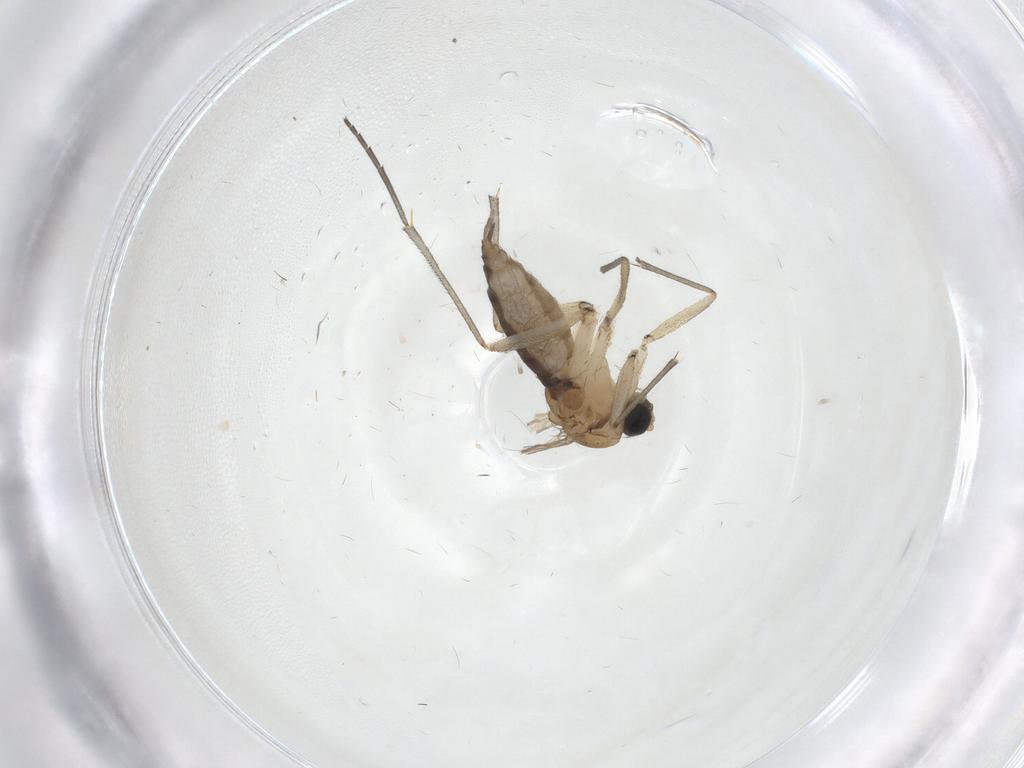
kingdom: Animalia
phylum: Arthropoda
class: Insecta
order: Diptera
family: Sciaridae
